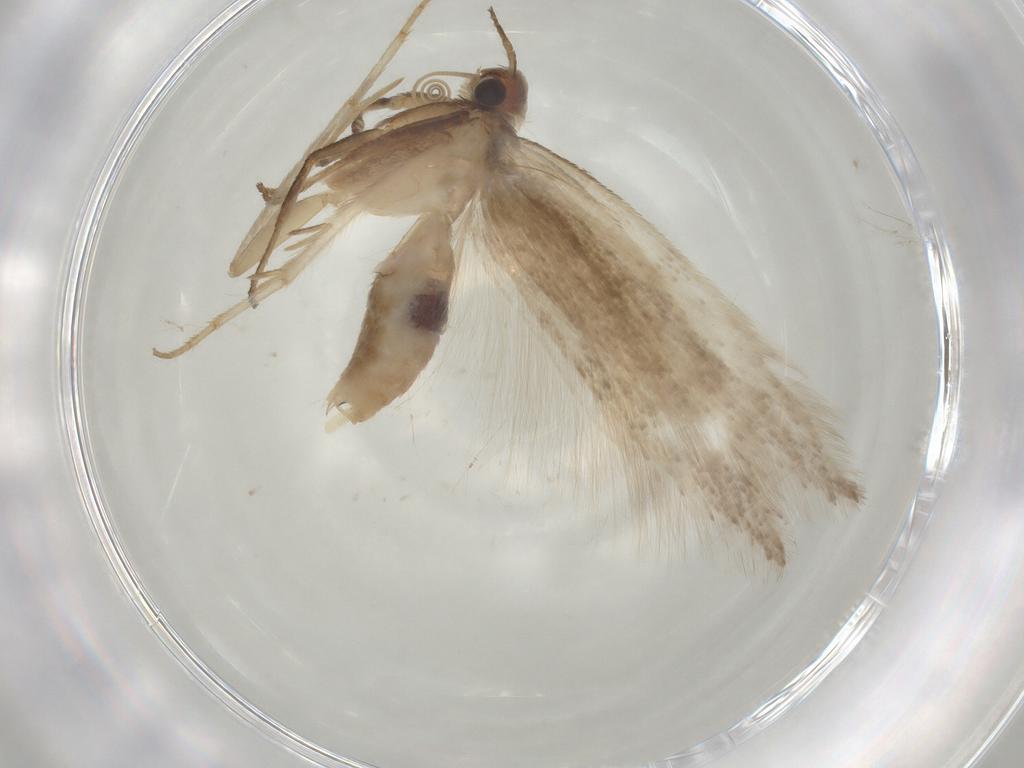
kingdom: Animalia
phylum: Arthropoda
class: Insecta
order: Lepidoptera
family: Gelechiidae
